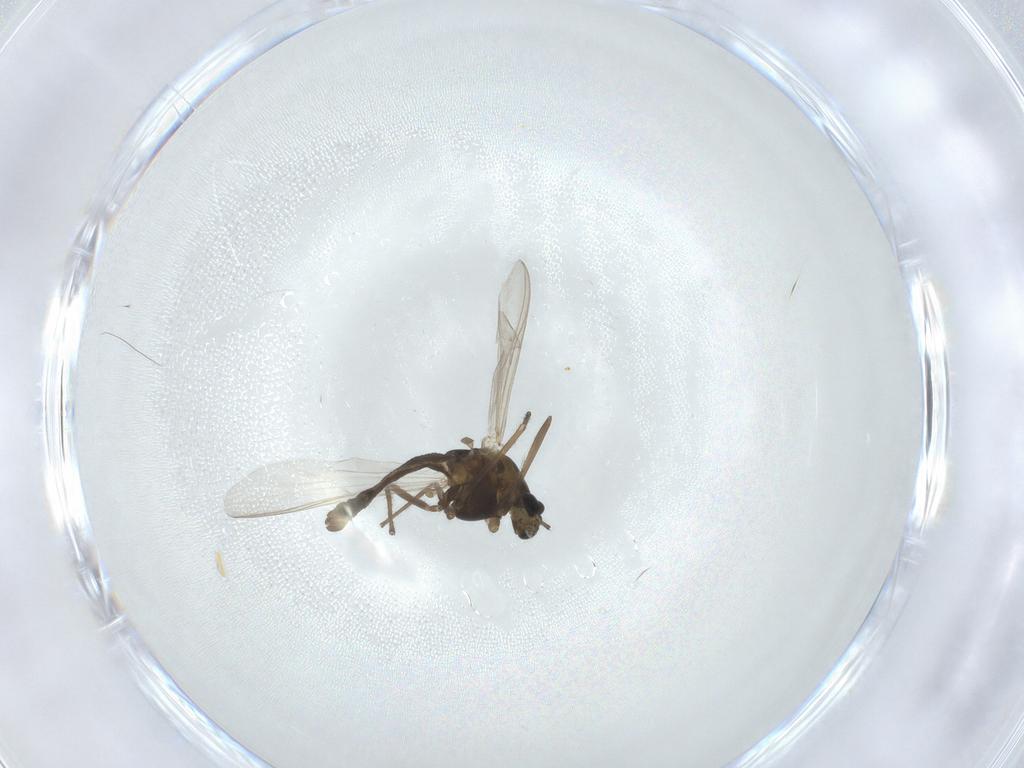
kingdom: Animalia
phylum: Arthropoda
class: Insecta
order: Diptera
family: Chironomidae
